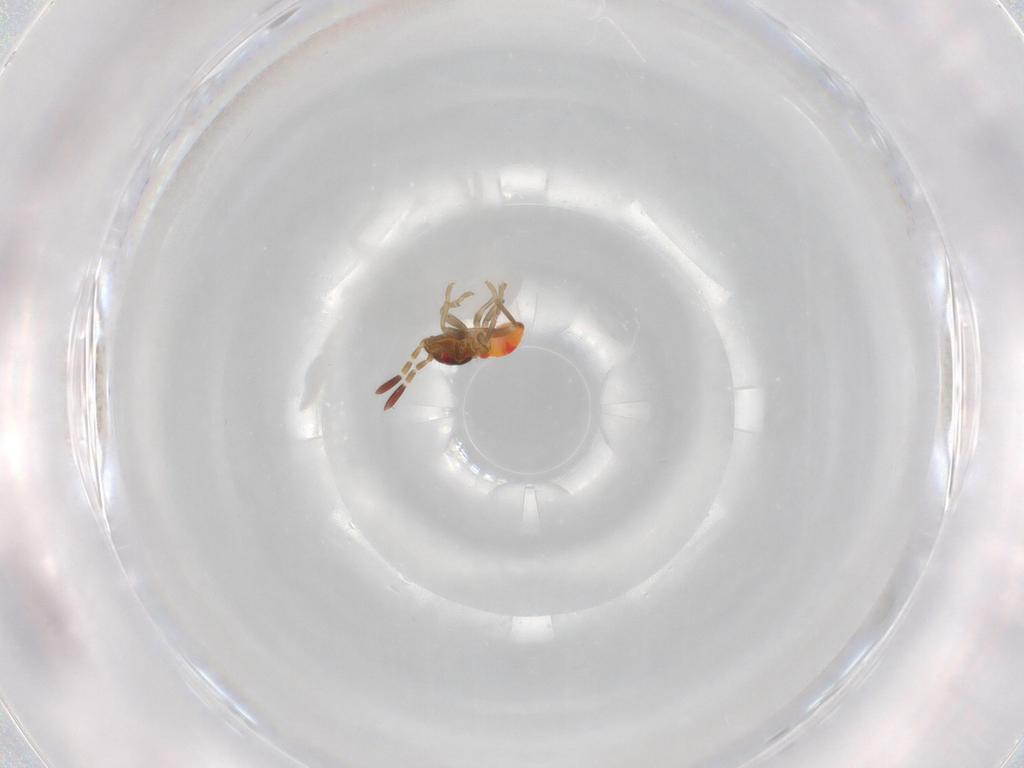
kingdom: Animalia
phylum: Arthropoda
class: Insecta
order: Hemiptera
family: Rhyparochromidae
